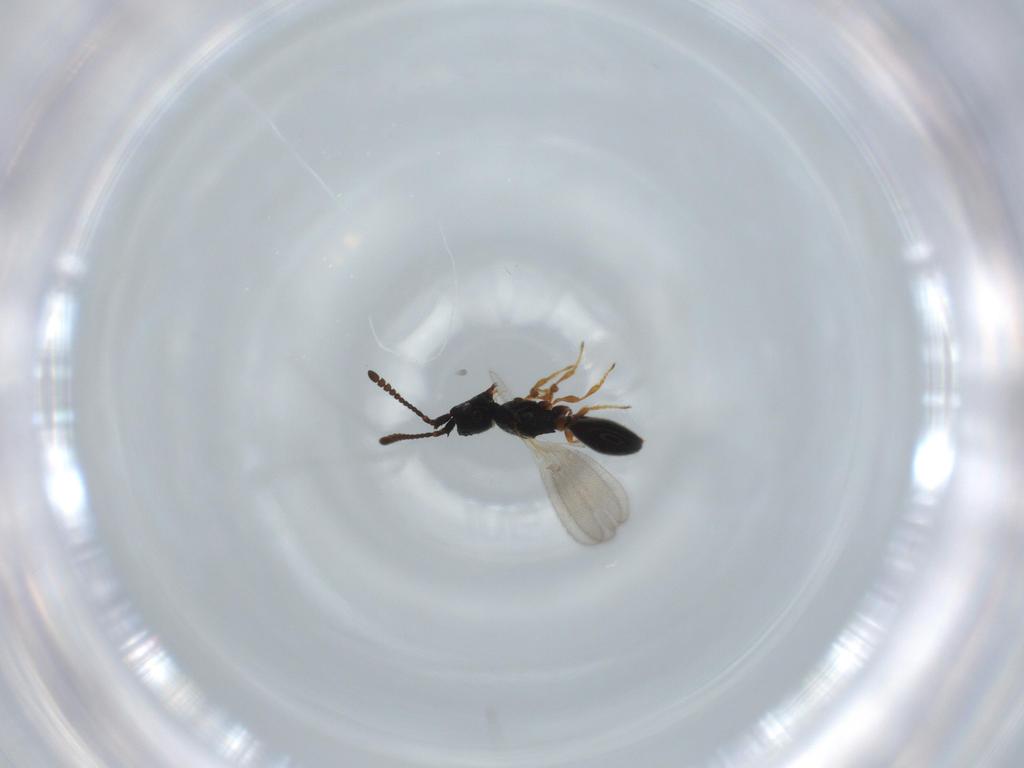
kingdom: Animalia
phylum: Arthropoda
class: Insecta
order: Hymenoptera
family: Diapriidae
